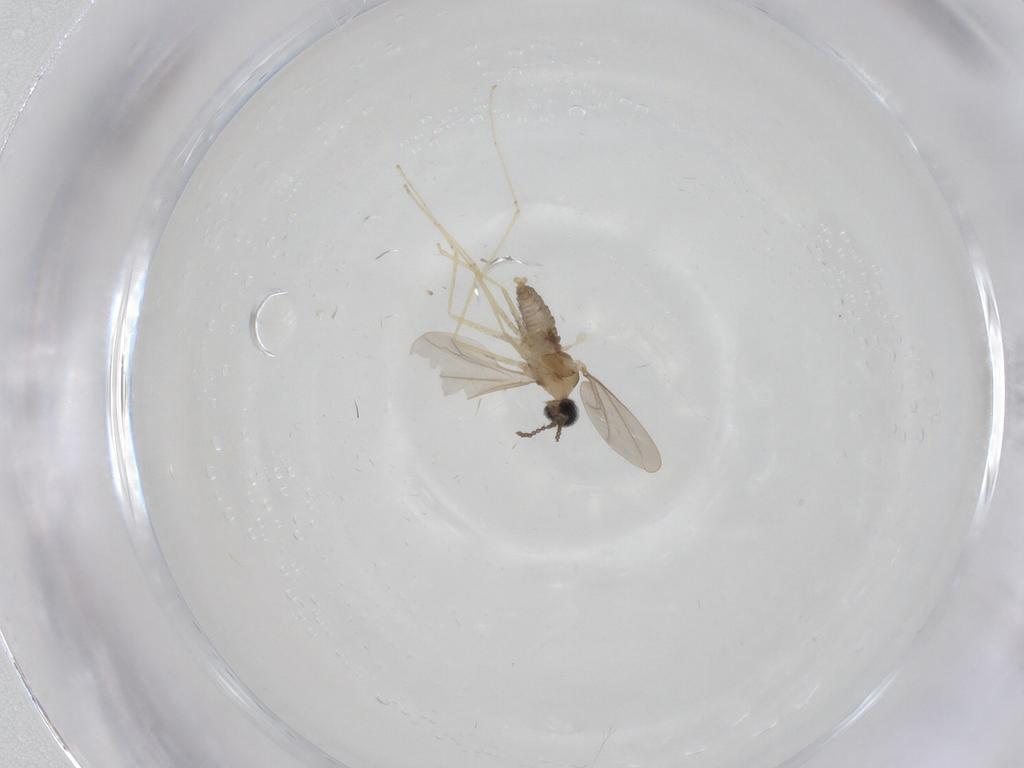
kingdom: Animalia
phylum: Arthropoda
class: Insecta
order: Diptera
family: Cecidomyiidae
